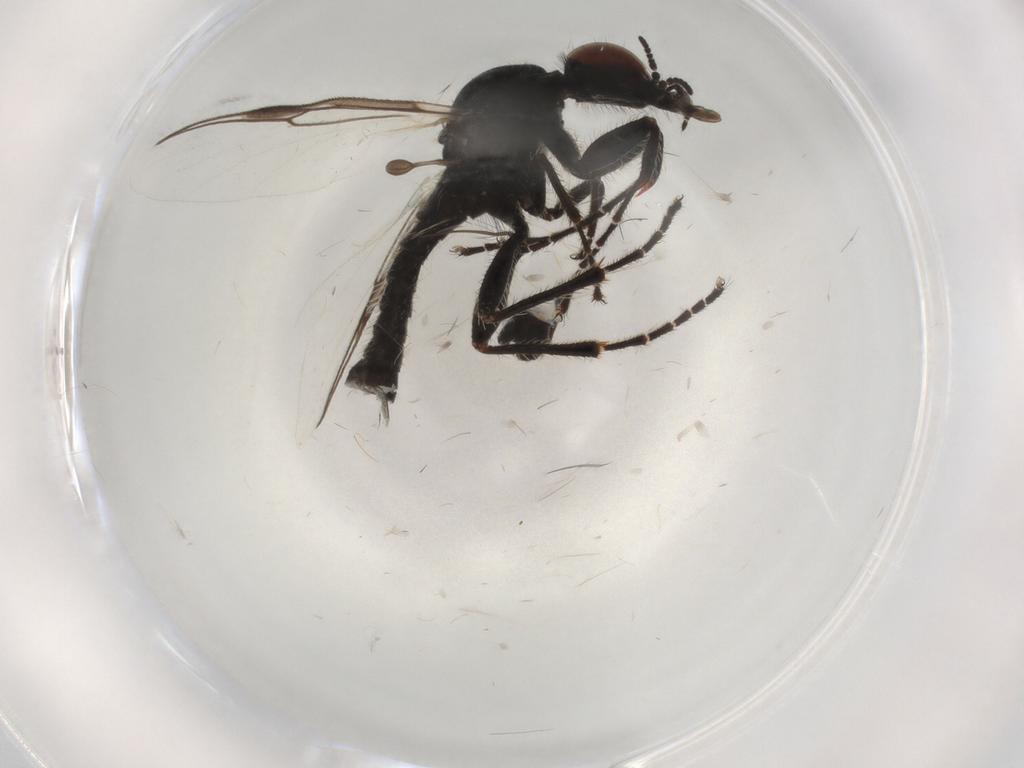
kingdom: Animalia
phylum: Arthropoda
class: Insecta
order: Diptera
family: Bibionidae
